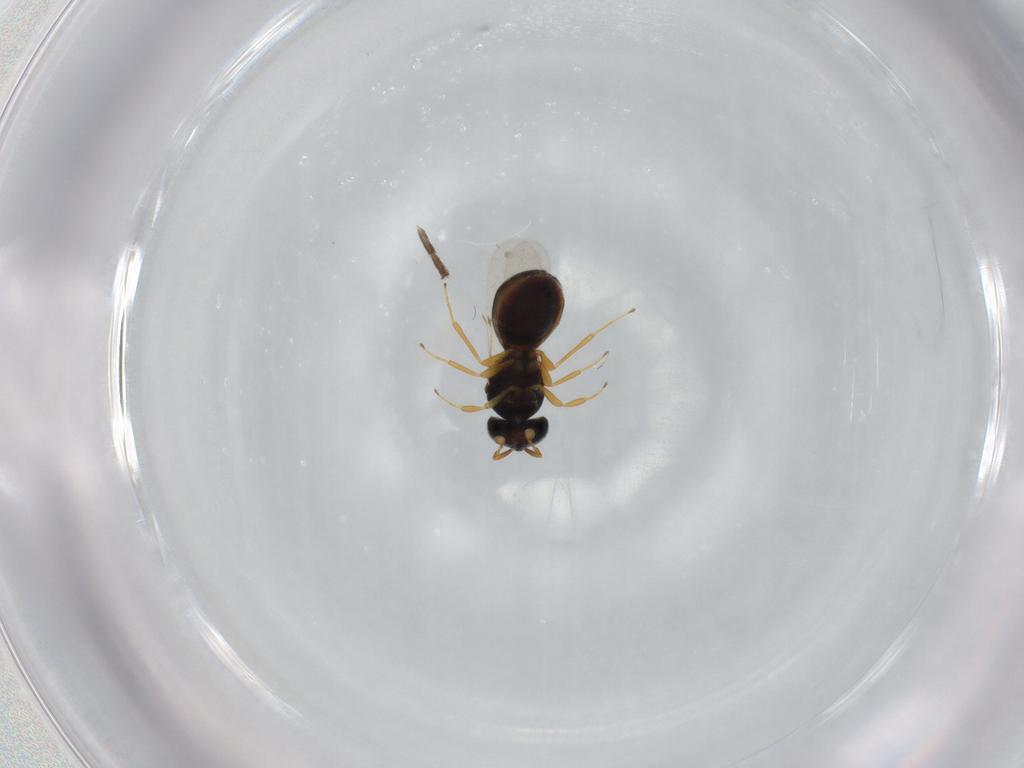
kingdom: Animalia
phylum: Arthropoda
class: Insecta
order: Hymenoptera
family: Scelionidae
